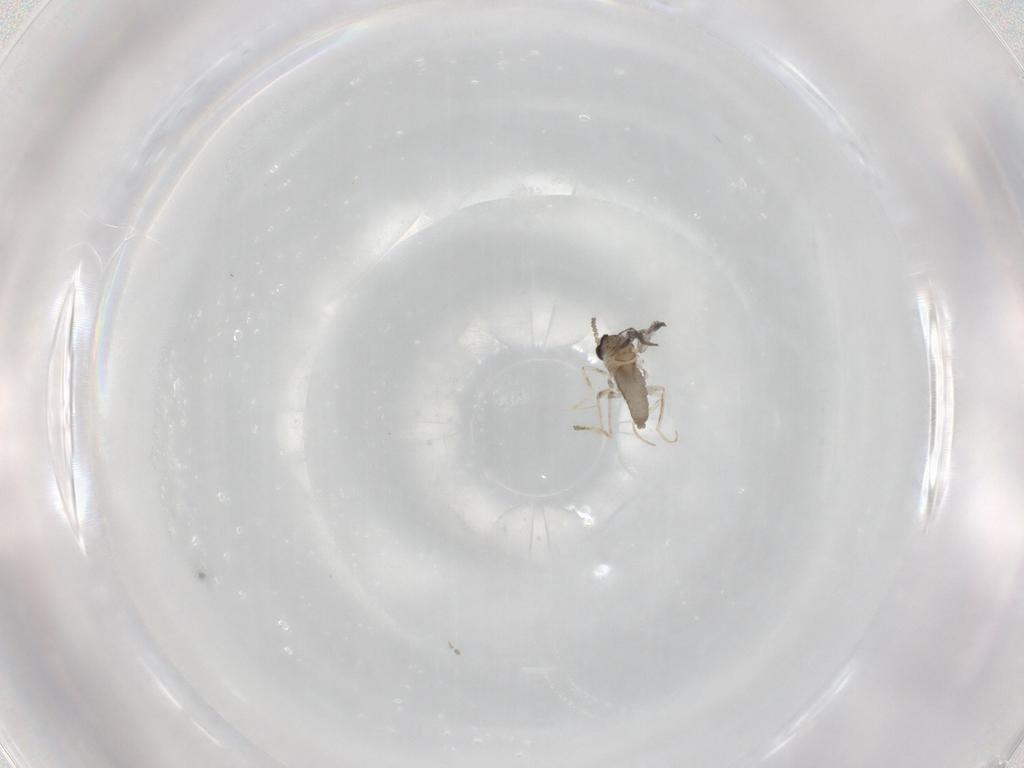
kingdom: Animalia
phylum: Arthropoda
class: Insecta
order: Diptera
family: Cecidomyiidae
